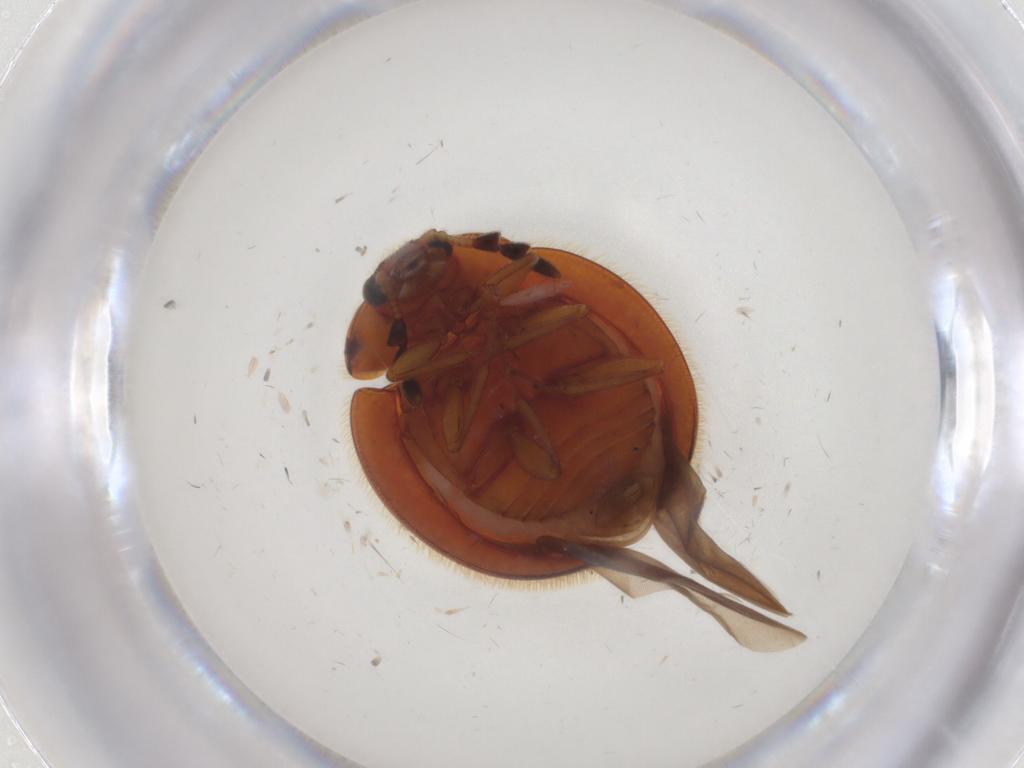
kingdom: Animalia
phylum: Arthropoda
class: Insecta
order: Coleoptera
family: Anamorphidae
